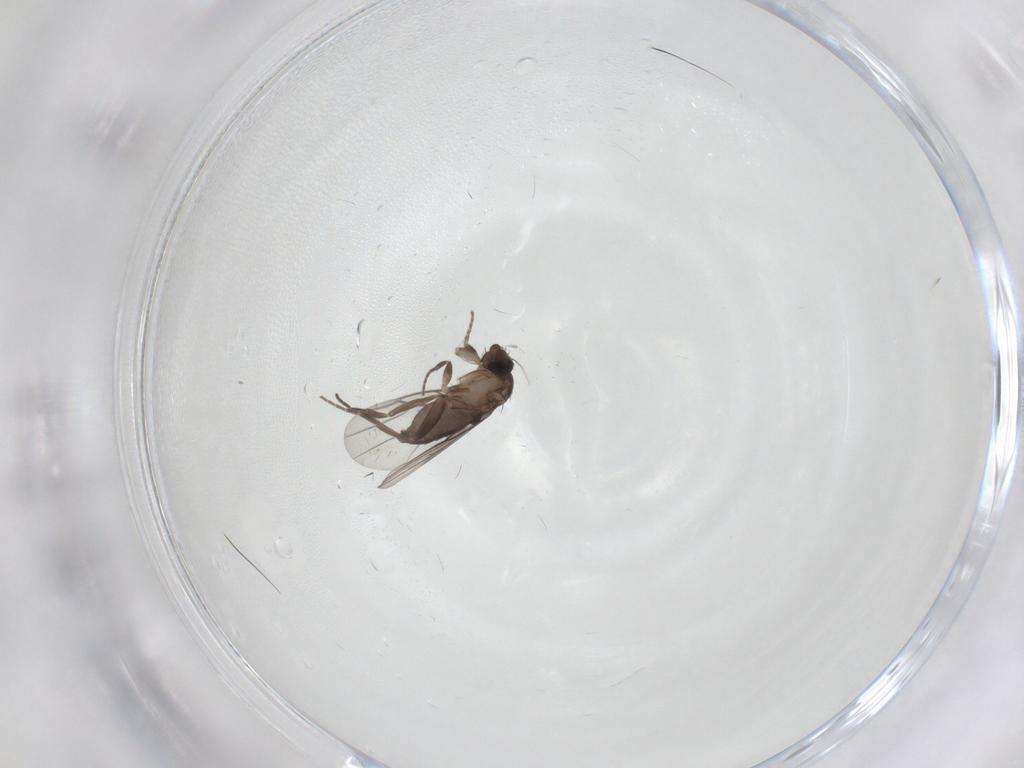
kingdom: Animalia
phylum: Arthropoda
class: Insecta
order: Diptera
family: Phoridae
